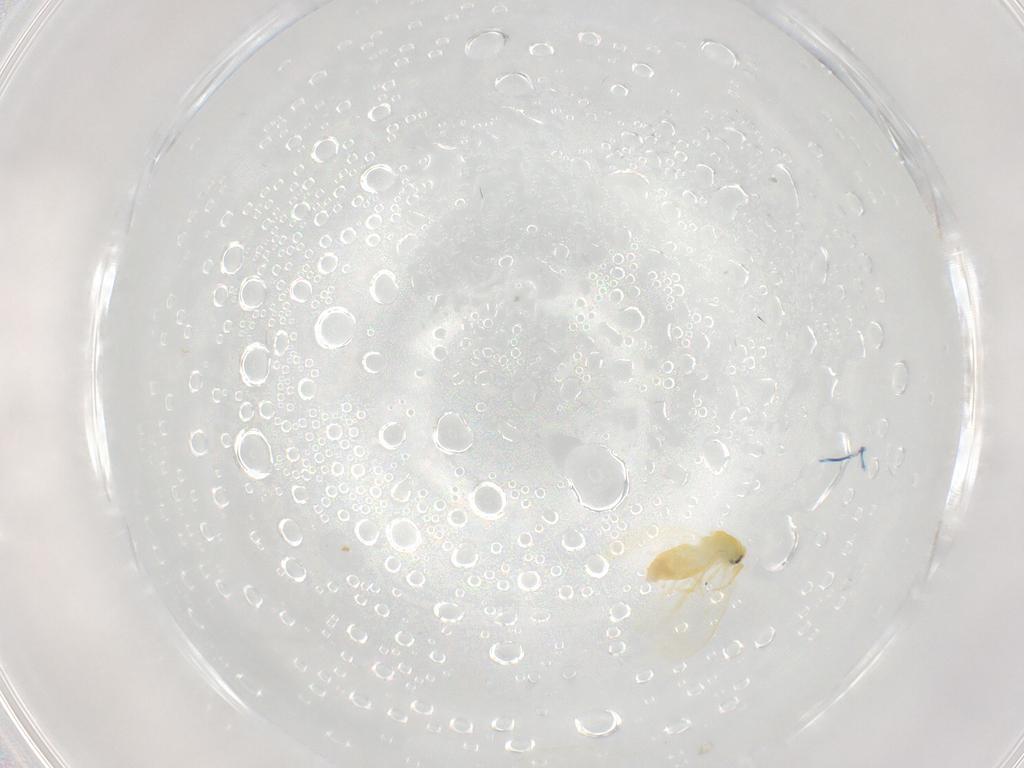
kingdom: Animalia
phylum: Arthropoda
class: Insecta
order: Hemiptera
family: Aleyrodidae
